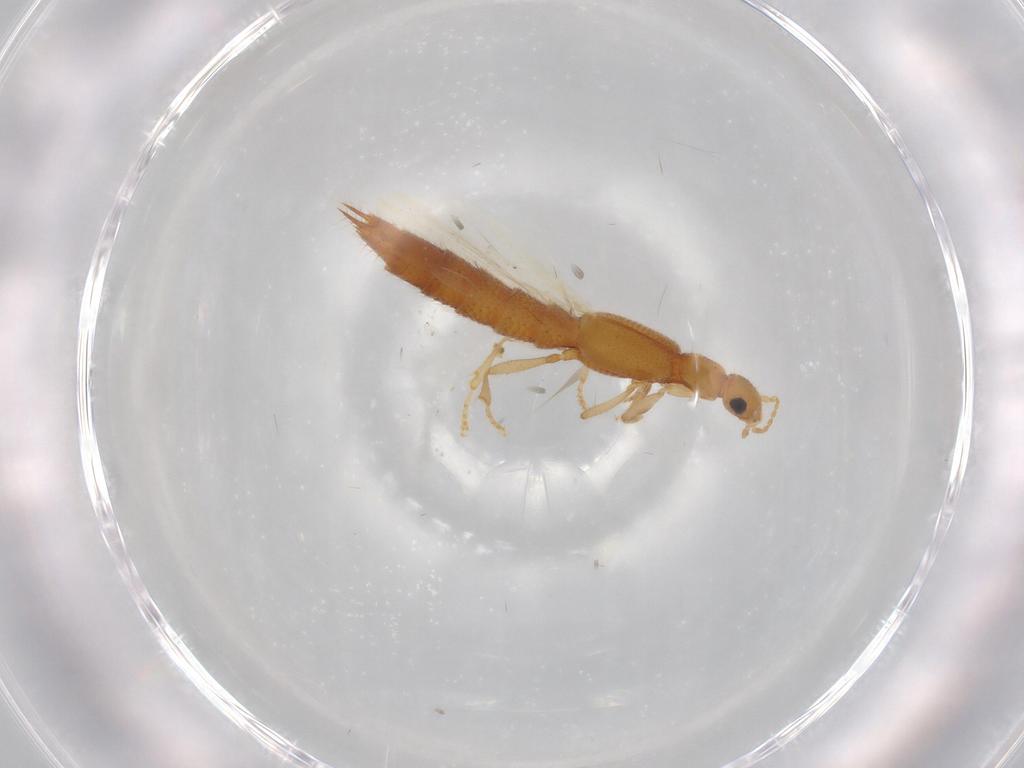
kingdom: Animalia
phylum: Arthropoda
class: Insecta
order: Coleoptera
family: Staphylinidae
